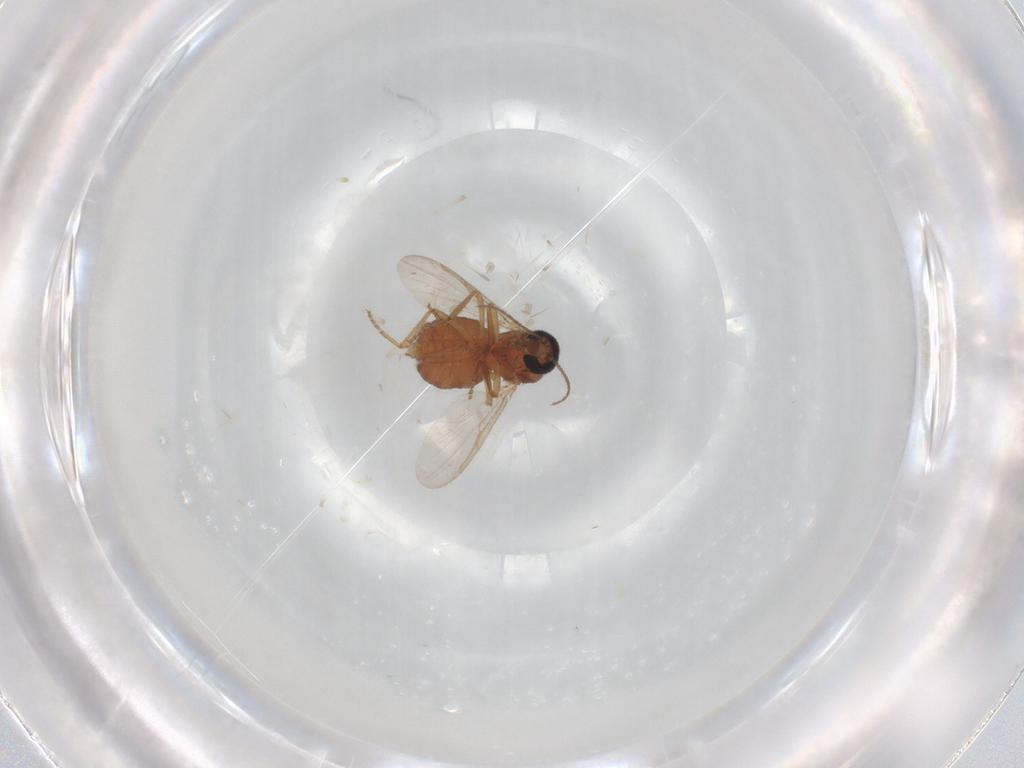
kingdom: Animalia
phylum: Arthropoda
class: Insecta
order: Diptera
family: Ceratopogonidae
